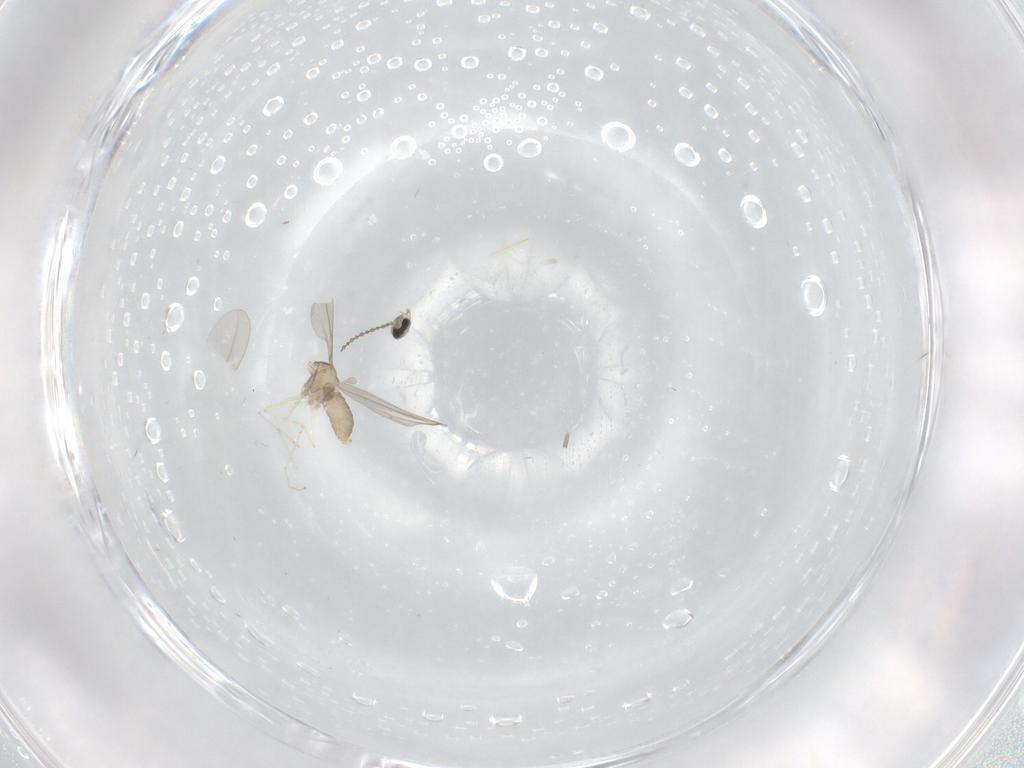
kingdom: Animalia
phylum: Arthropoda
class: Insecta
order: Diptera
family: Cecidomyiidae
